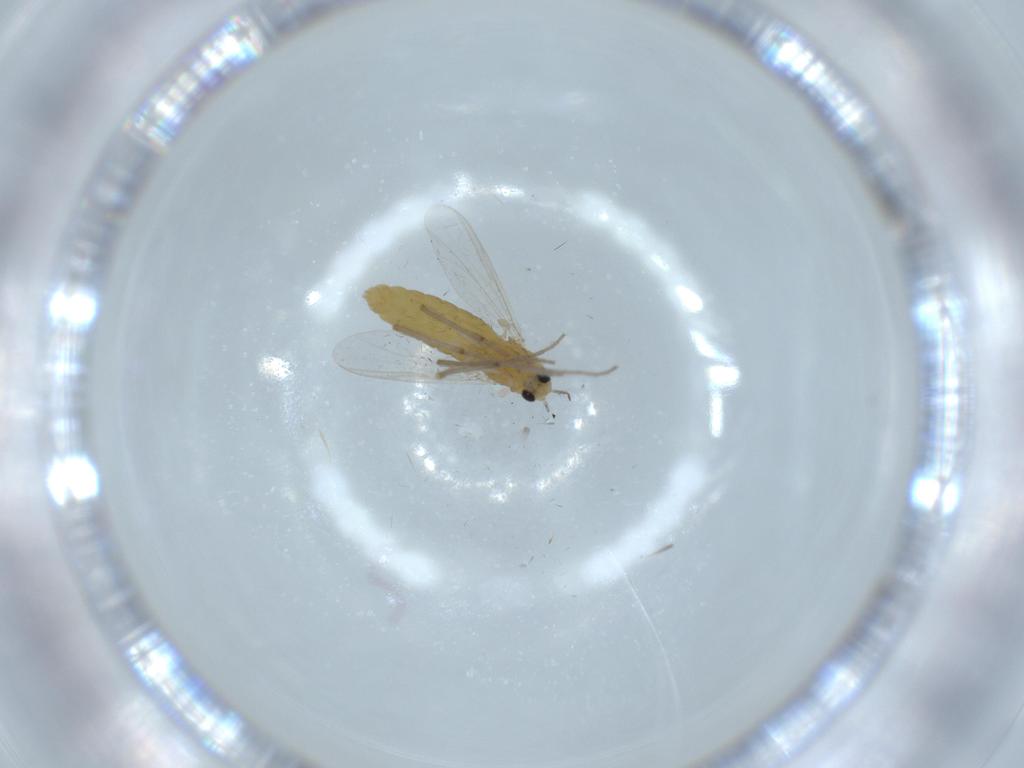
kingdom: Animalia
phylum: Arthropoda
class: Insecta
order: Diptera
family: Chironomidae
